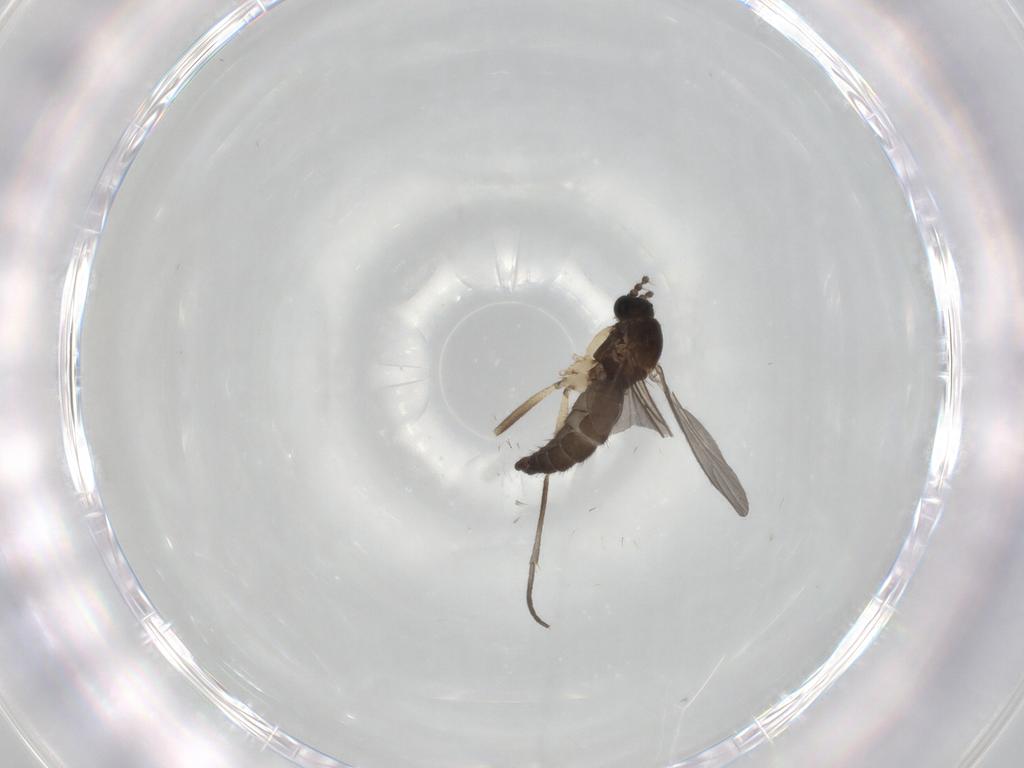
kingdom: Animalia
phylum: Arthropoda
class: Insecta
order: Diptera
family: Sciaridae
